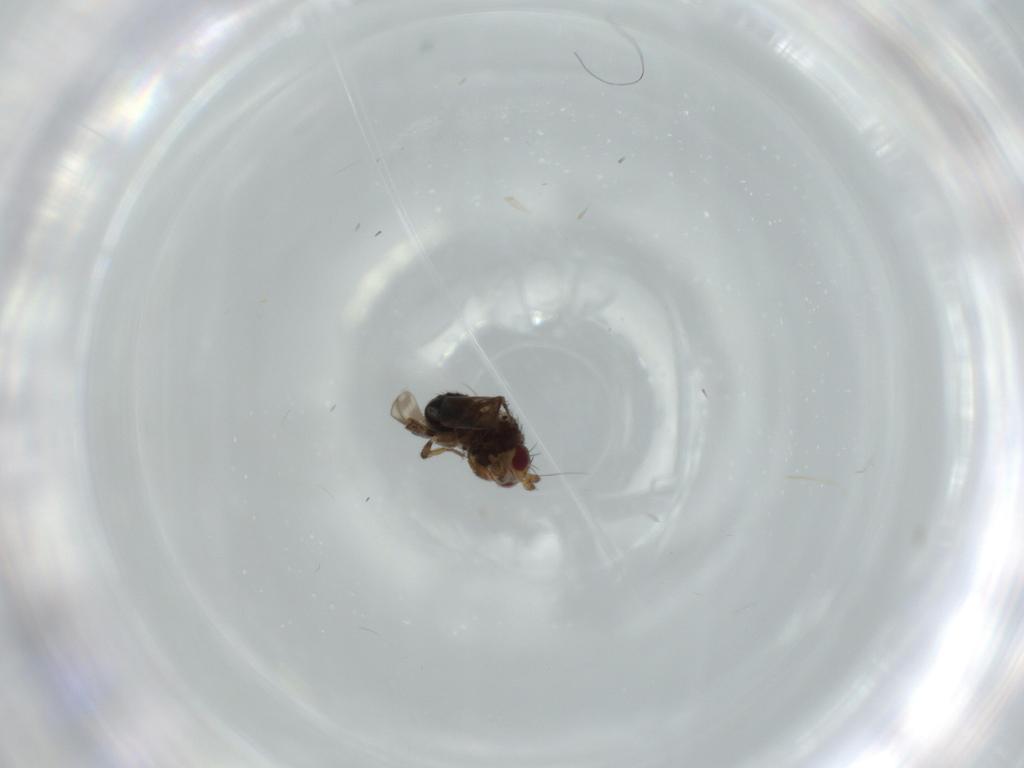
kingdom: Animalia
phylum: Arthropoda
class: Insecta
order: Diptera
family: Sphaeroceridae
